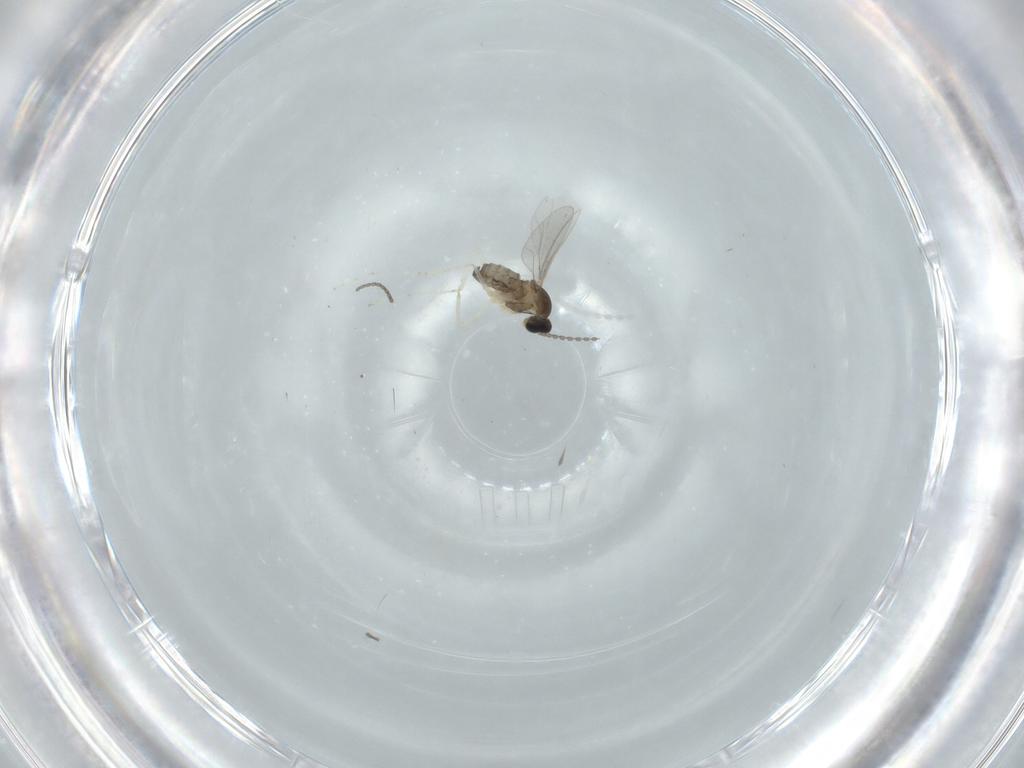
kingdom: Animalia
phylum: Arthropoda
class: Insecta
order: Diptera
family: Cecidomyiidae
